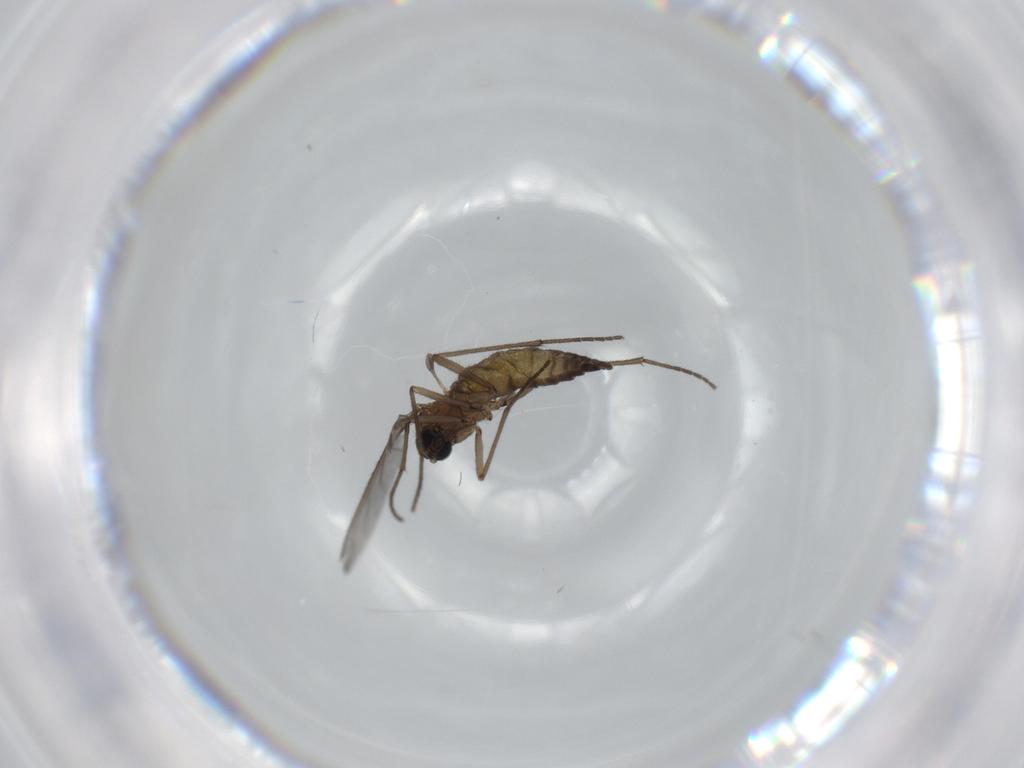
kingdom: Animalia
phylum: Arthropoda
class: Insecta
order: Diptera
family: Sciaridae
